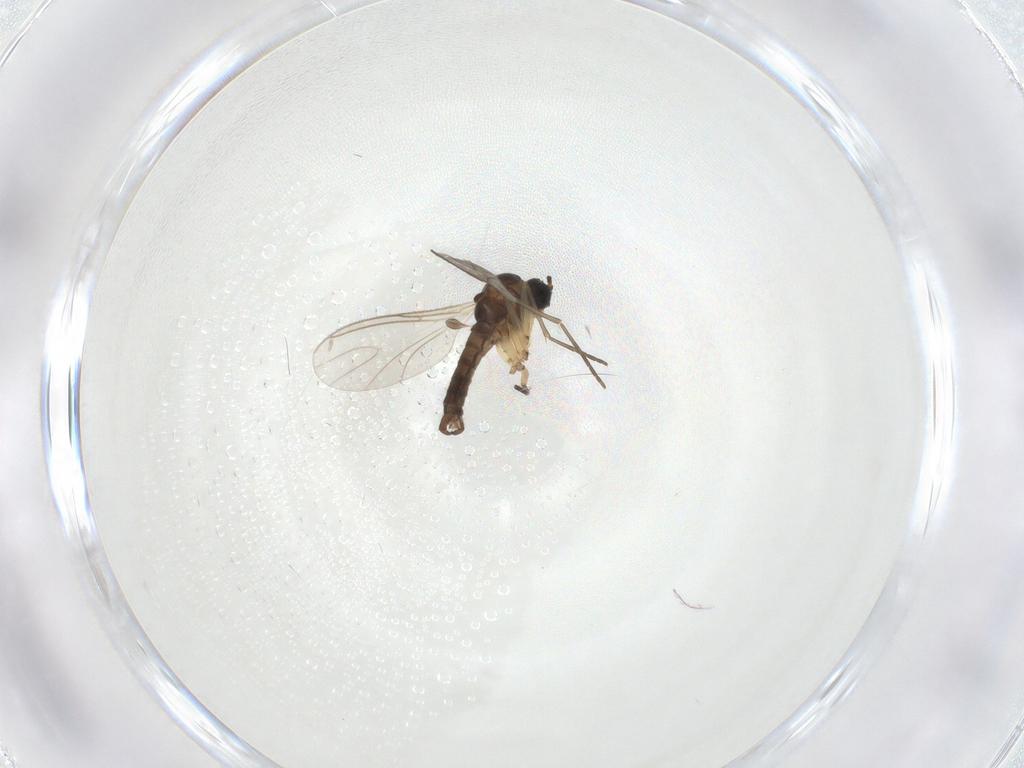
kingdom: Animalia
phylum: Arthropoda
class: Insecta
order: Diptera
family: Sciaridae
